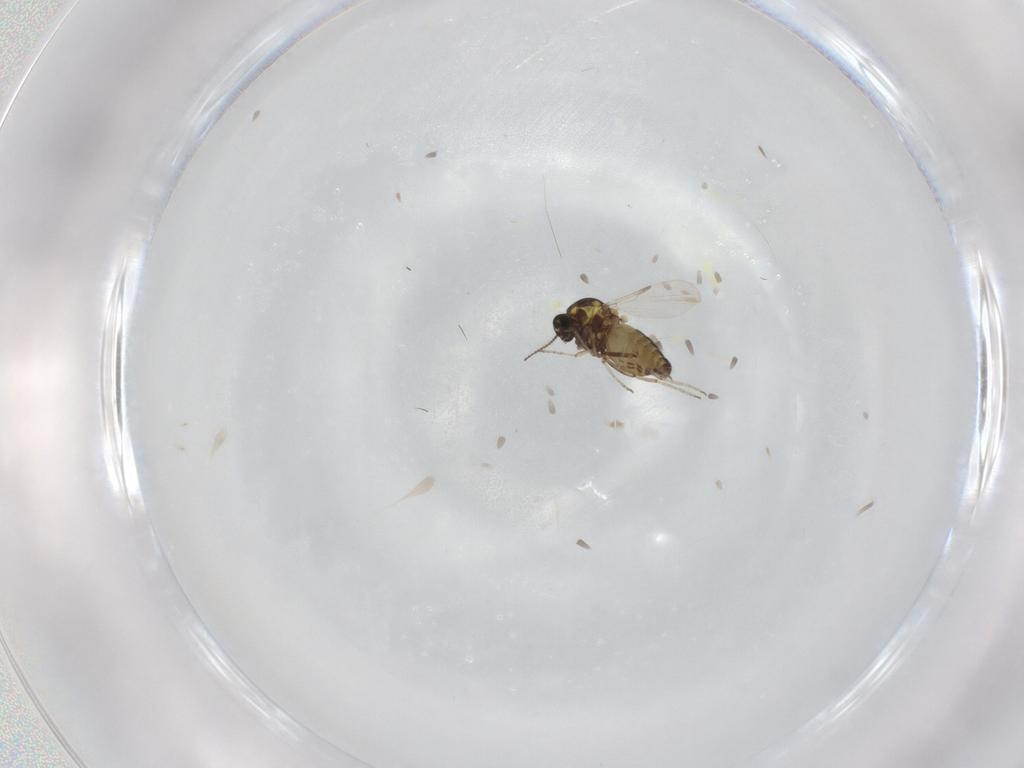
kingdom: Animalia
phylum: Arthropoda
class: Insecta
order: Diptera
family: Ceratopogonidae
